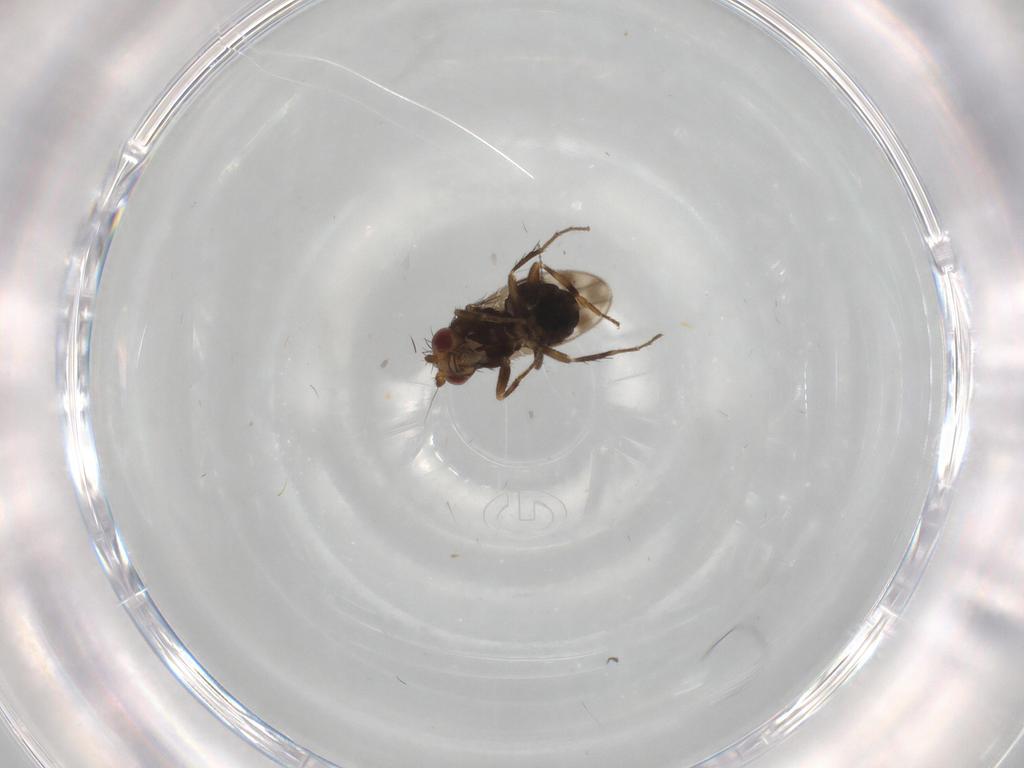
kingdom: Animalia
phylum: Arthropoda
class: Insecta
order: Diptera
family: Sphaeroceridae
